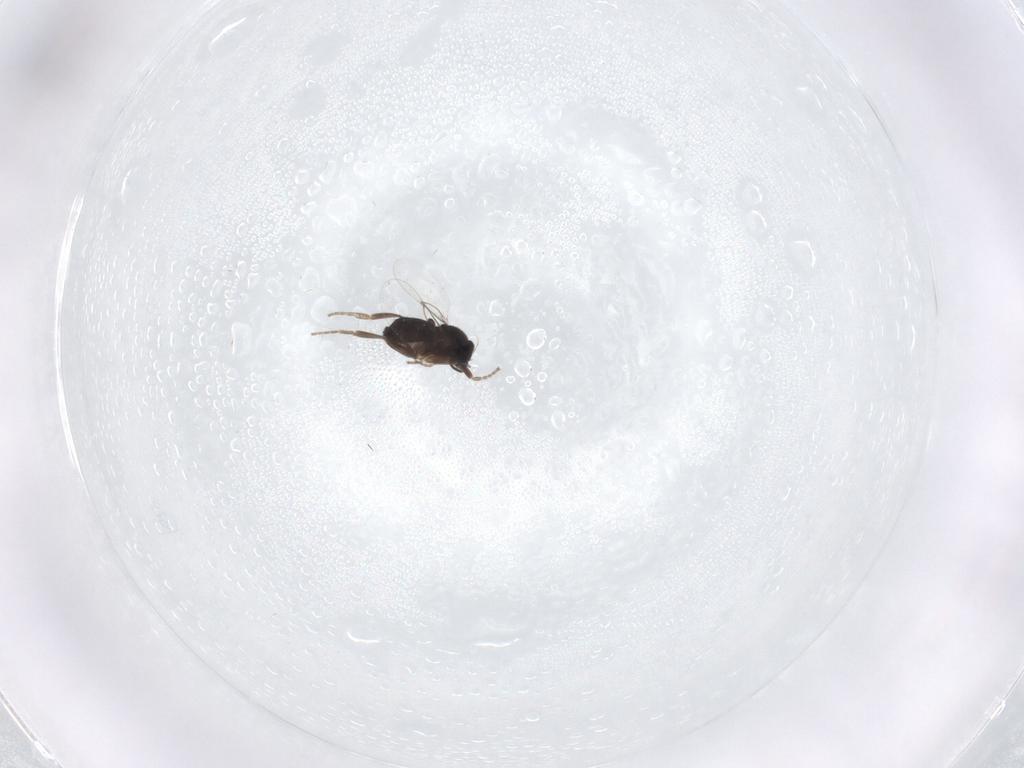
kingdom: Animalia
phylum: Arthropoda
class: Insecta
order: Diptera
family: Phoridae
